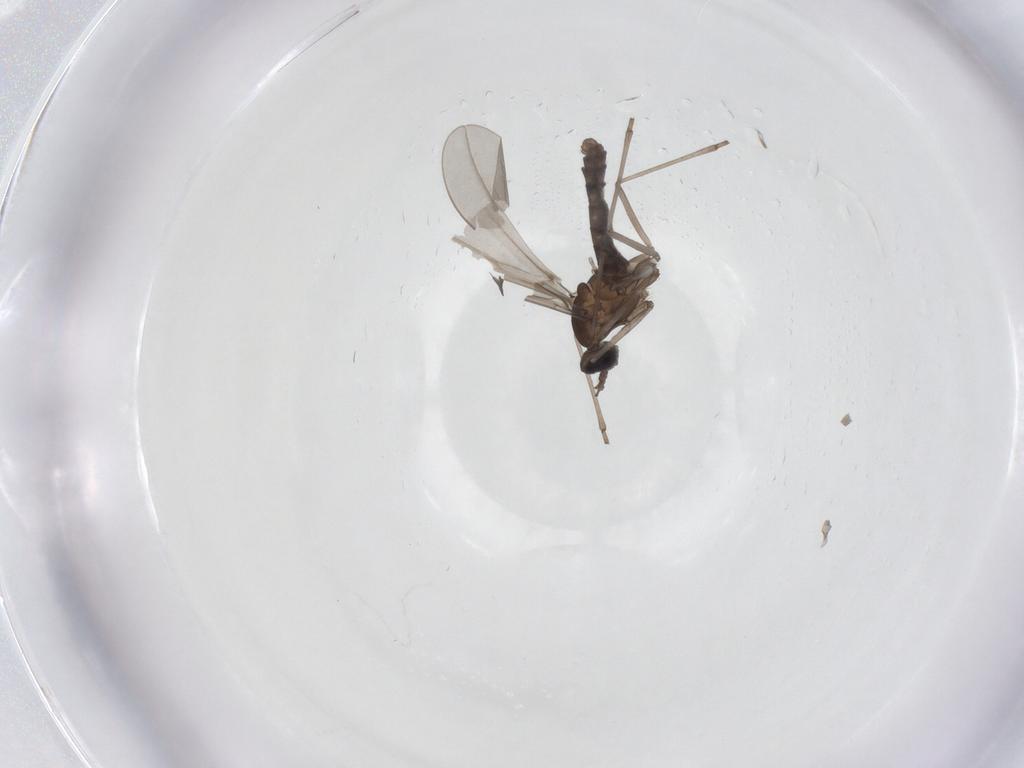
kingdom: Animalia
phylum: Arthropoda
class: Insecta
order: Diptera
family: Cecidomyiidae
